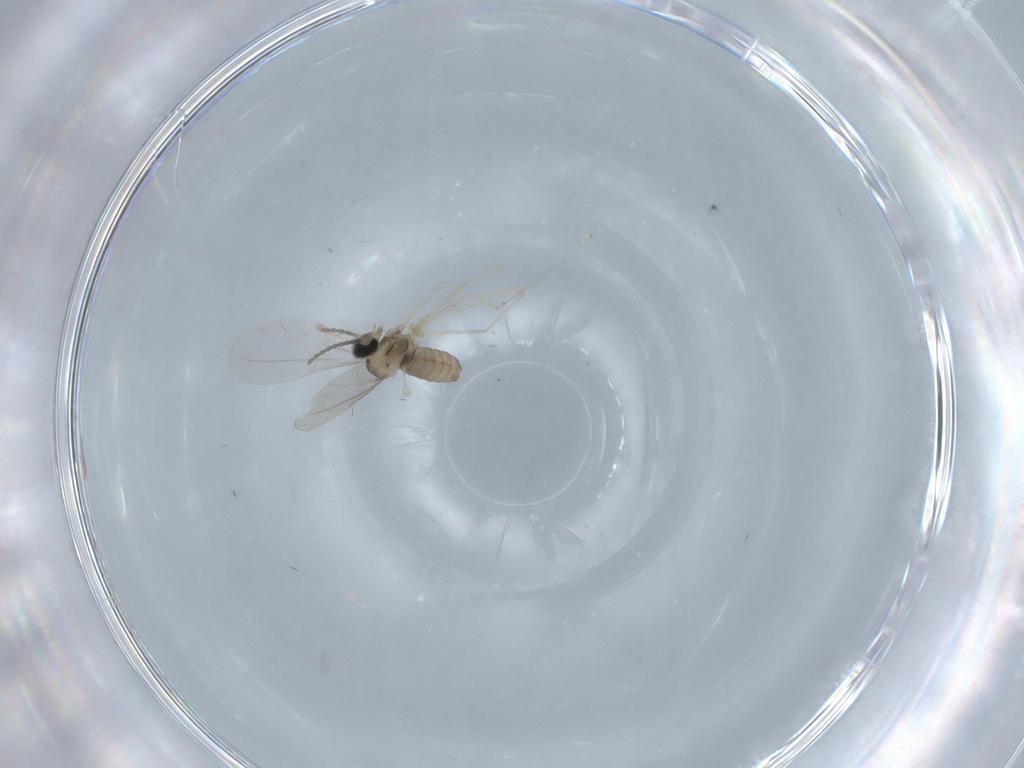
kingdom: Animalia
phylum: Arthropoda
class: Insecta
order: Diptera
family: Cecidomyiidae
